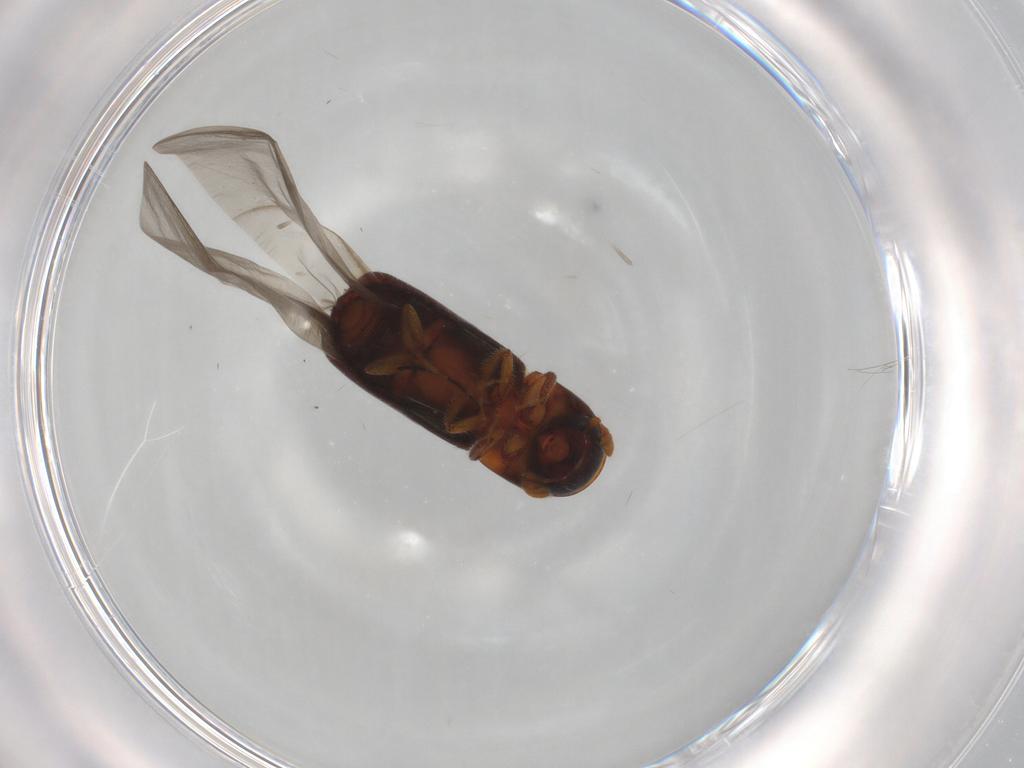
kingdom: Animalia
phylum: Arthropoda
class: Insecta
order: Coleoptera
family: Curculionidae
